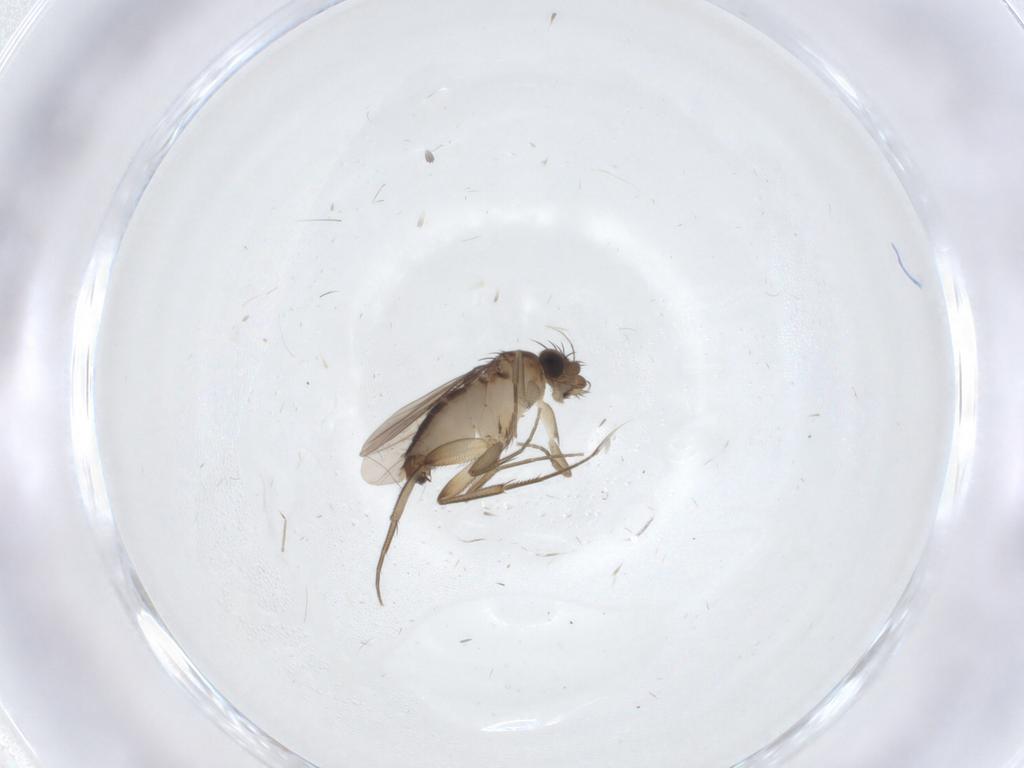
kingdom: Animalia
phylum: Arthropoda
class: Insecta
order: Diptera
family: Phoridae
